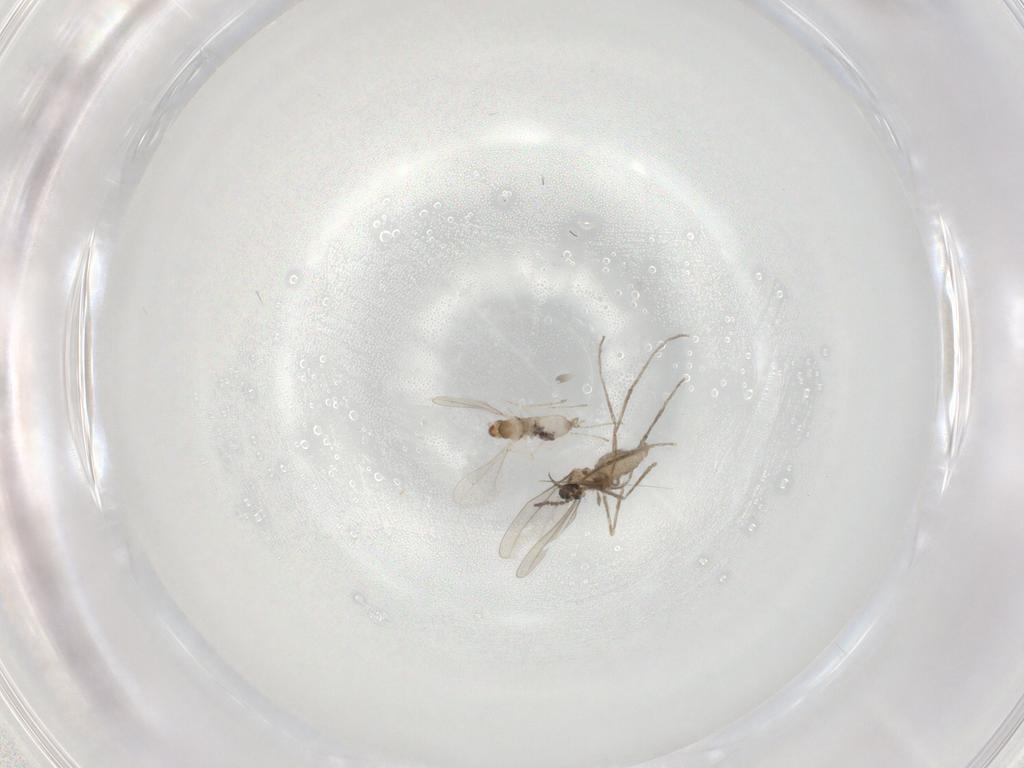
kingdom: Animalia
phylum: Arthropoda
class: Insecta
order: Diptera
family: Cecidomyiidae
